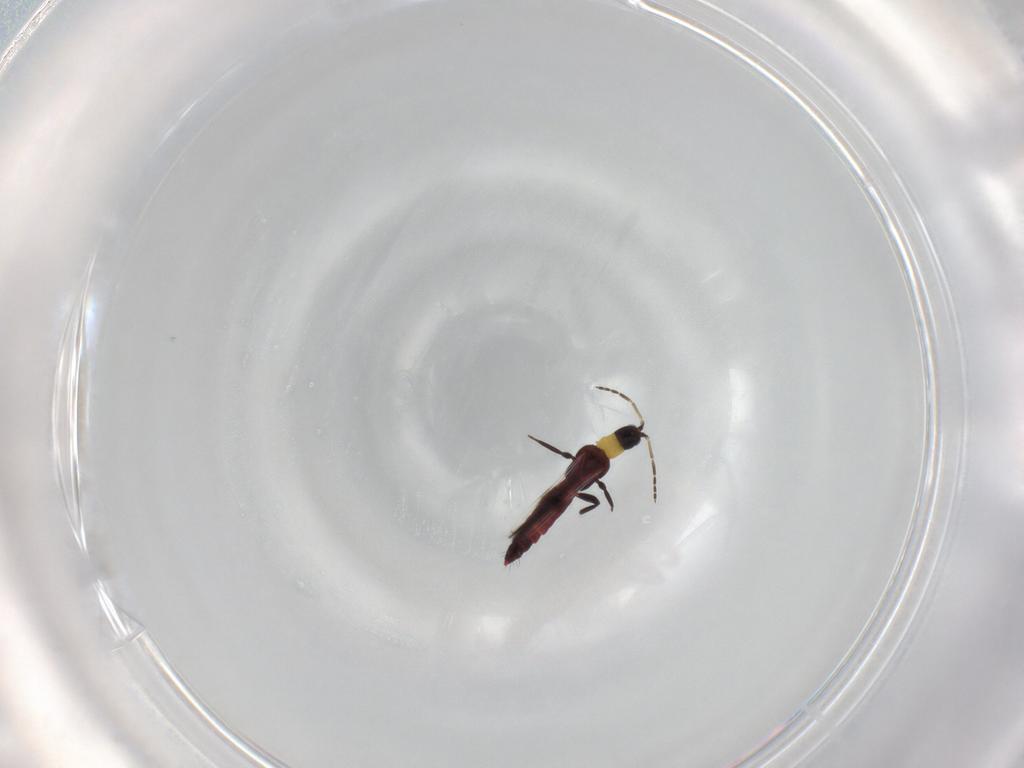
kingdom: Animalia
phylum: Arthropoda
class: Insecta
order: Thysanoptera
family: Aeolothripidae
